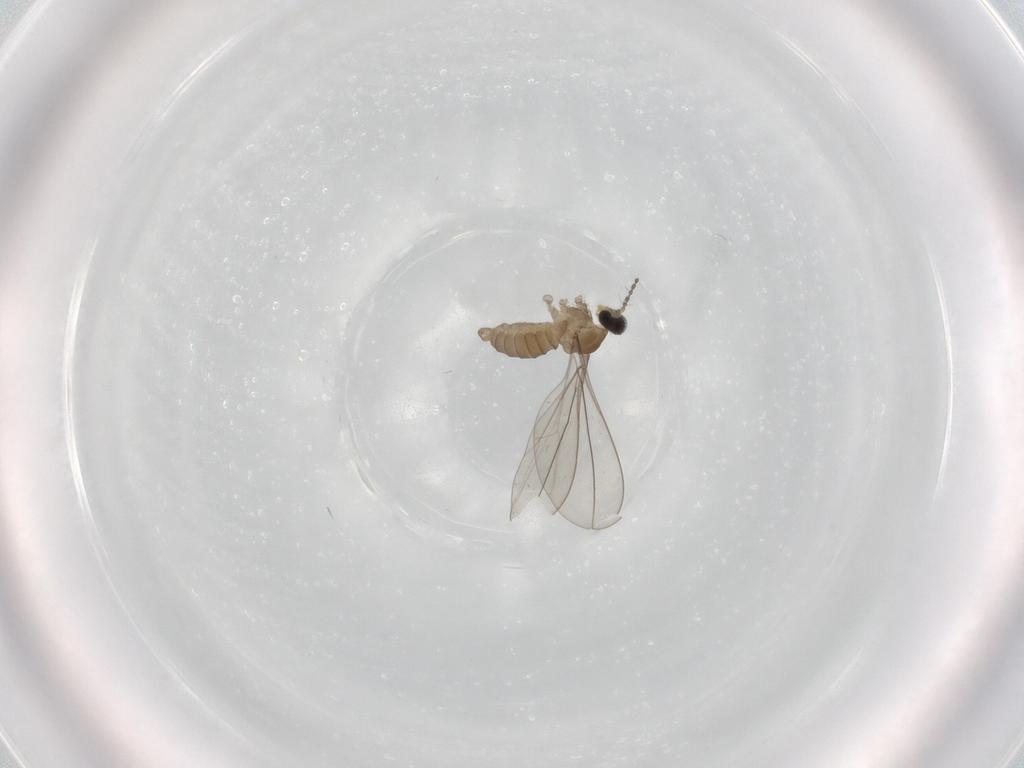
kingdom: Animalia
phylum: Arthropoda
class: Insecta
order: Diptera
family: Cecidomyiidae
